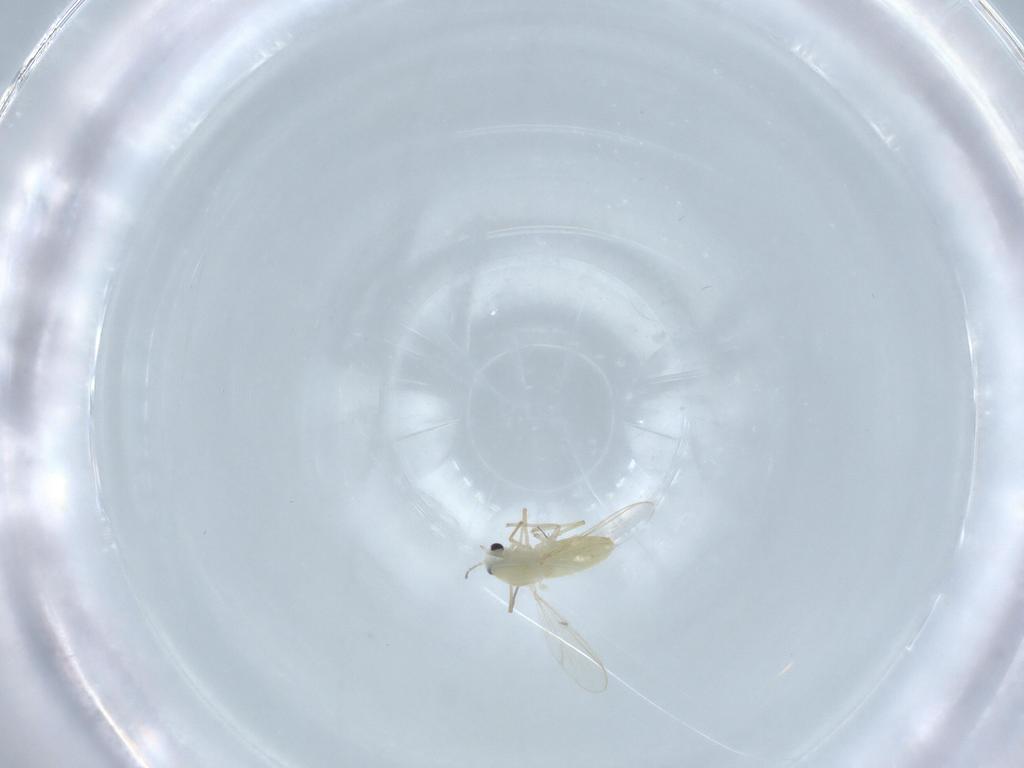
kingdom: Animalia
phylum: Arthropoda
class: Insecta
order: Diptera
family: Chironomidae
